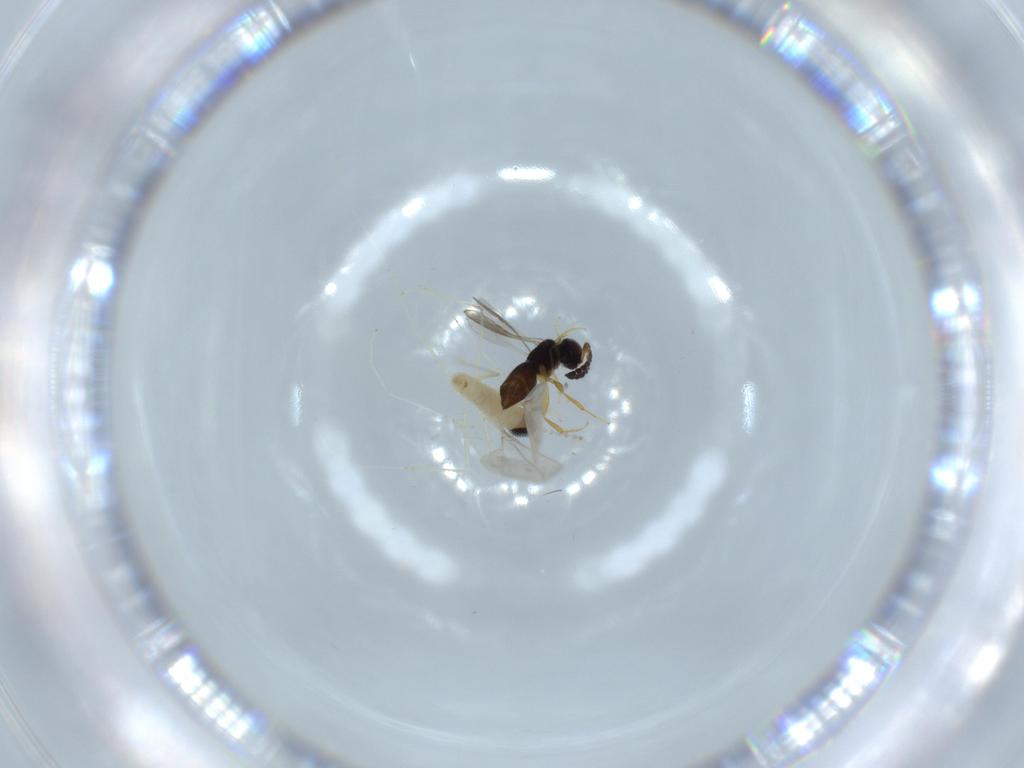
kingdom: Animalia
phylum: Arthropoda
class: Insecta
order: Diptera
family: Cecidomyiidae
